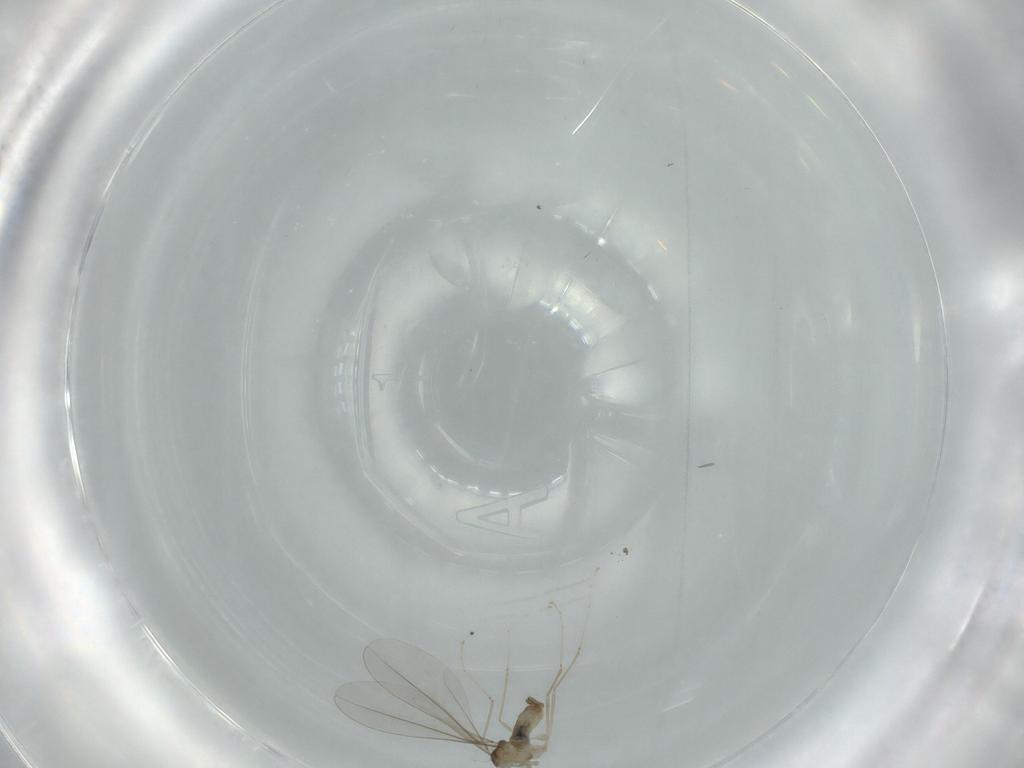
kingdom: Animalia
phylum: Arthropoda
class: Insecta
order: Diptera
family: Cecidomyiidae
